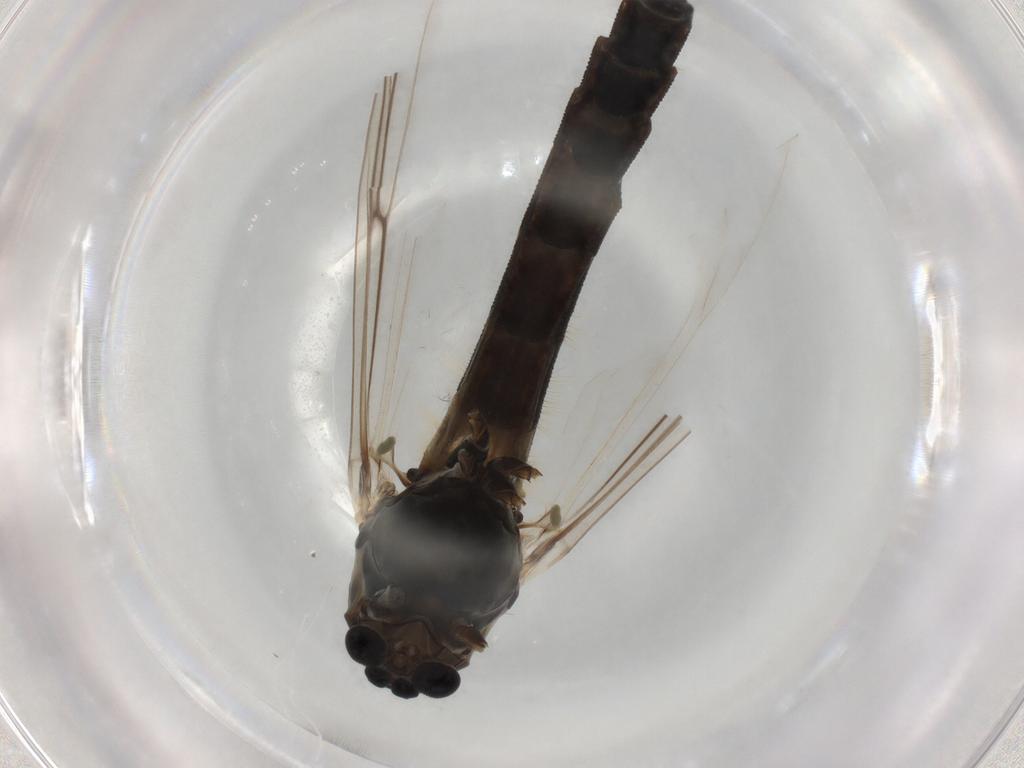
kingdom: Animalia
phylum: Arthropoda
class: Insecta
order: Diptera
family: Chironomidae
